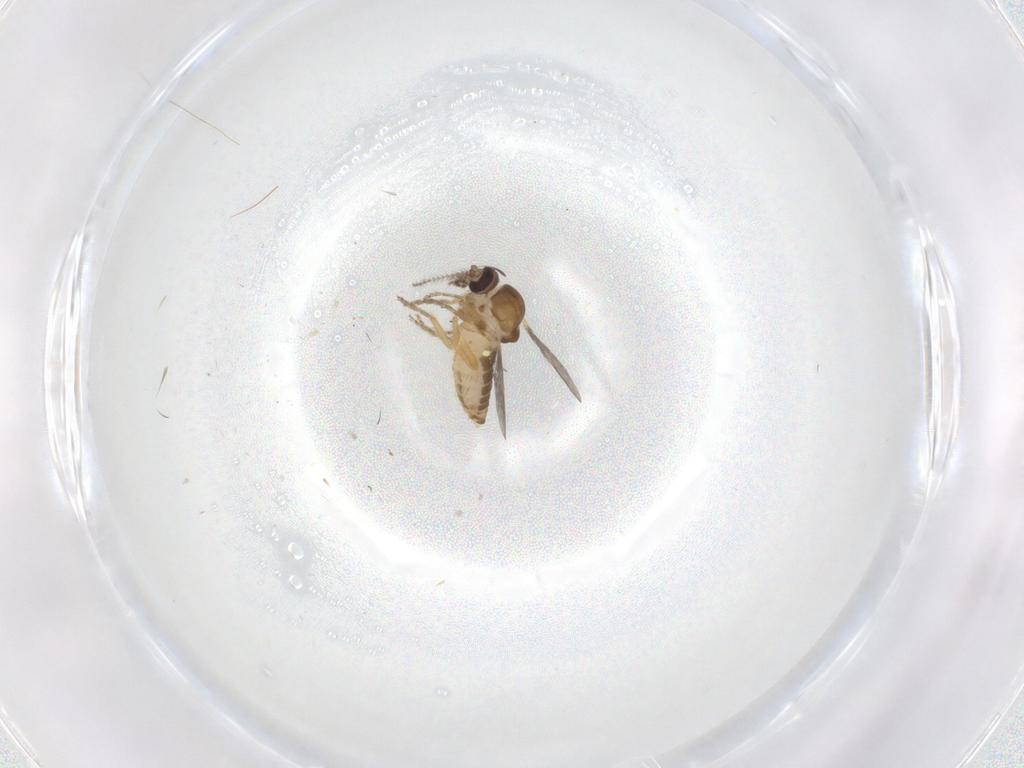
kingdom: Animalia
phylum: Arthropoda
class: Insecta
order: Diptera
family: Ceratopogonidae
